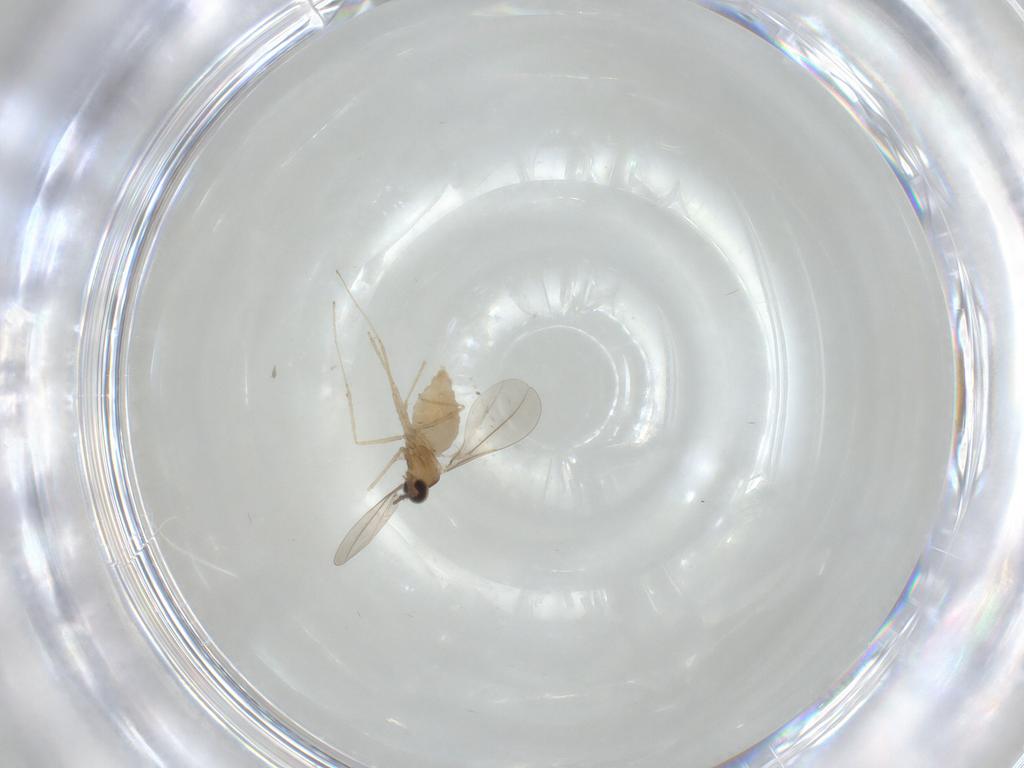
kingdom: Animalia
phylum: Arthropoda
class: Insecta
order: Diptera
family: Cecidomyiidae
